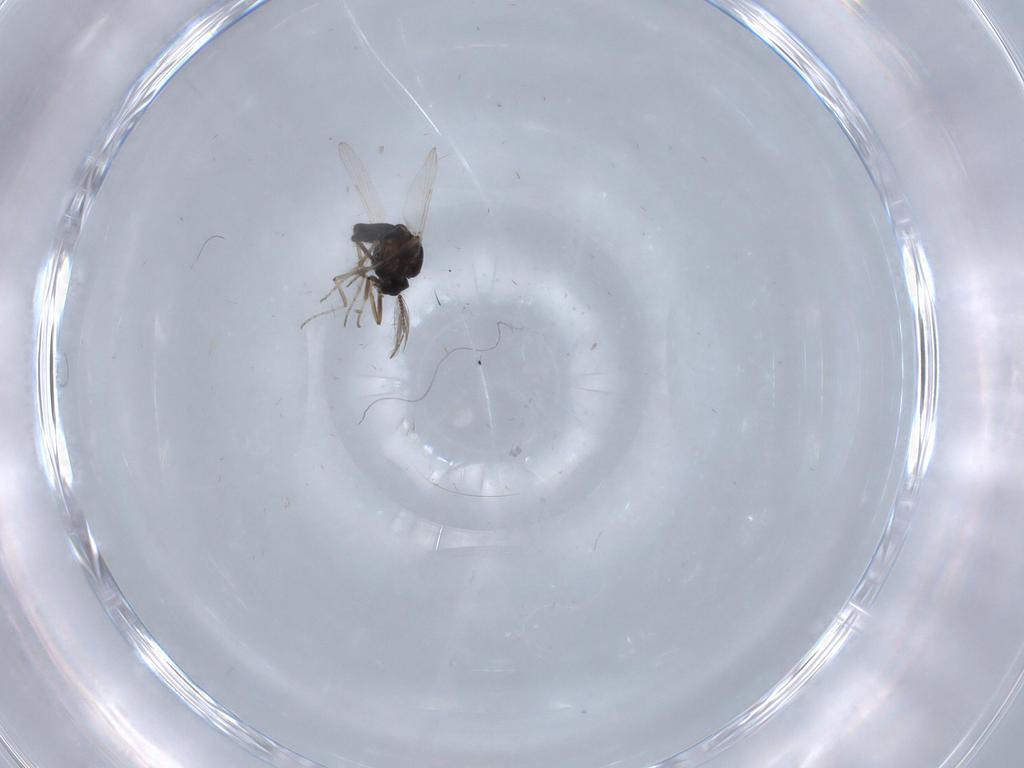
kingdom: Animalia
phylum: Arthropoda
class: Insecta
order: Diptera
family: Ceratopogonidae
